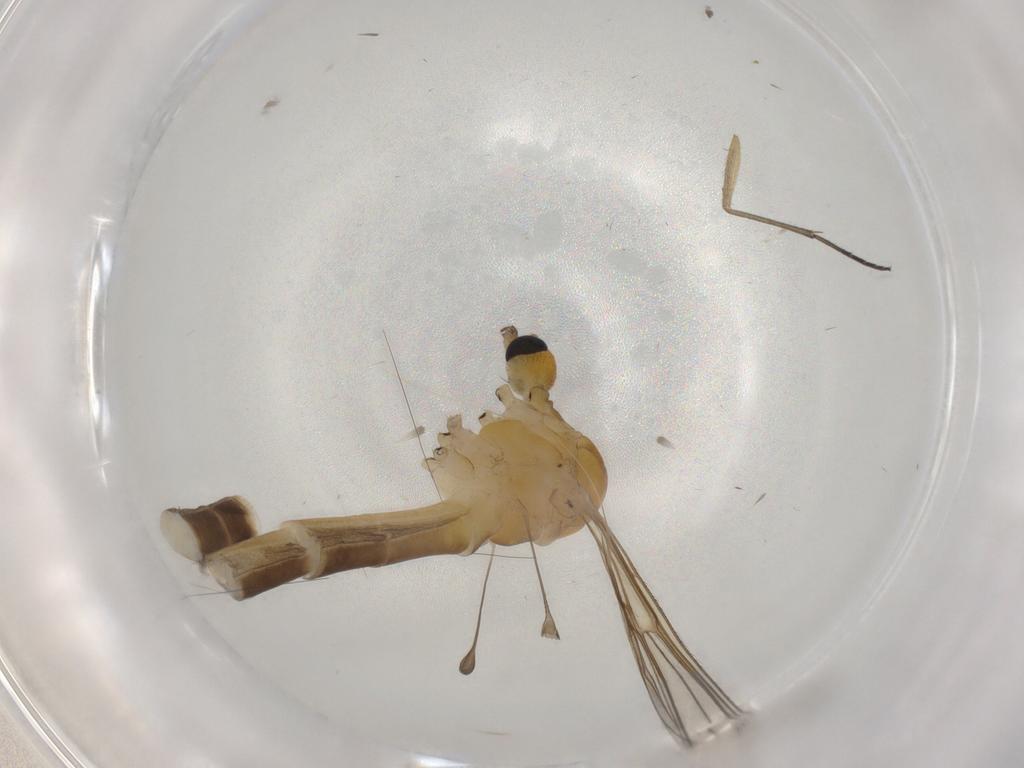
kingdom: Animalia
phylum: Arthropoda
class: Insecta
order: Diptera
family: Limoniidae
